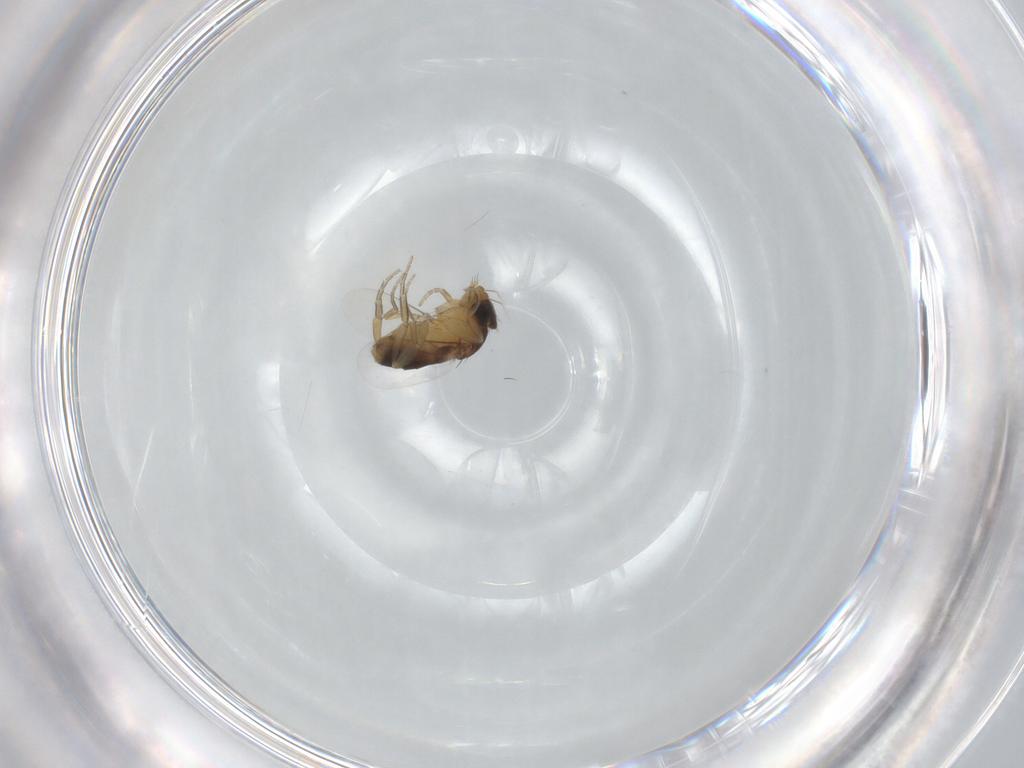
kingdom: Animalia
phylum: Arthropoda
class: Insecta
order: Diptera
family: Phoridae
